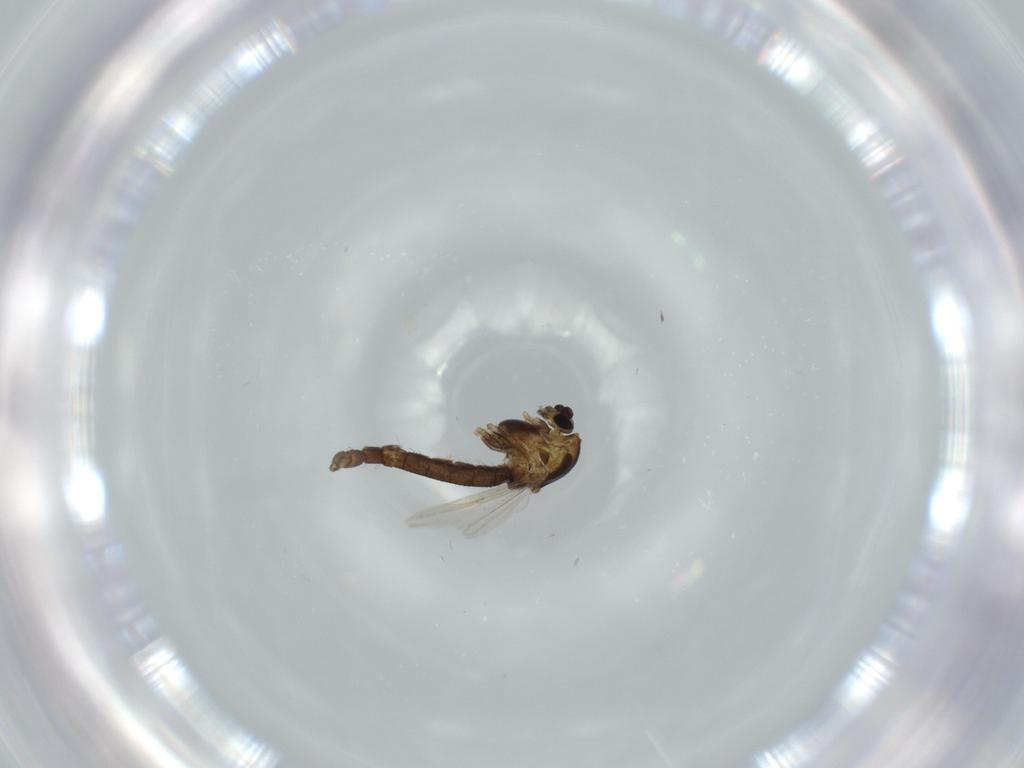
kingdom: Animalia
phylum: Arthropoda
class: Insecta
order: Diptera
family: Chironomidae
